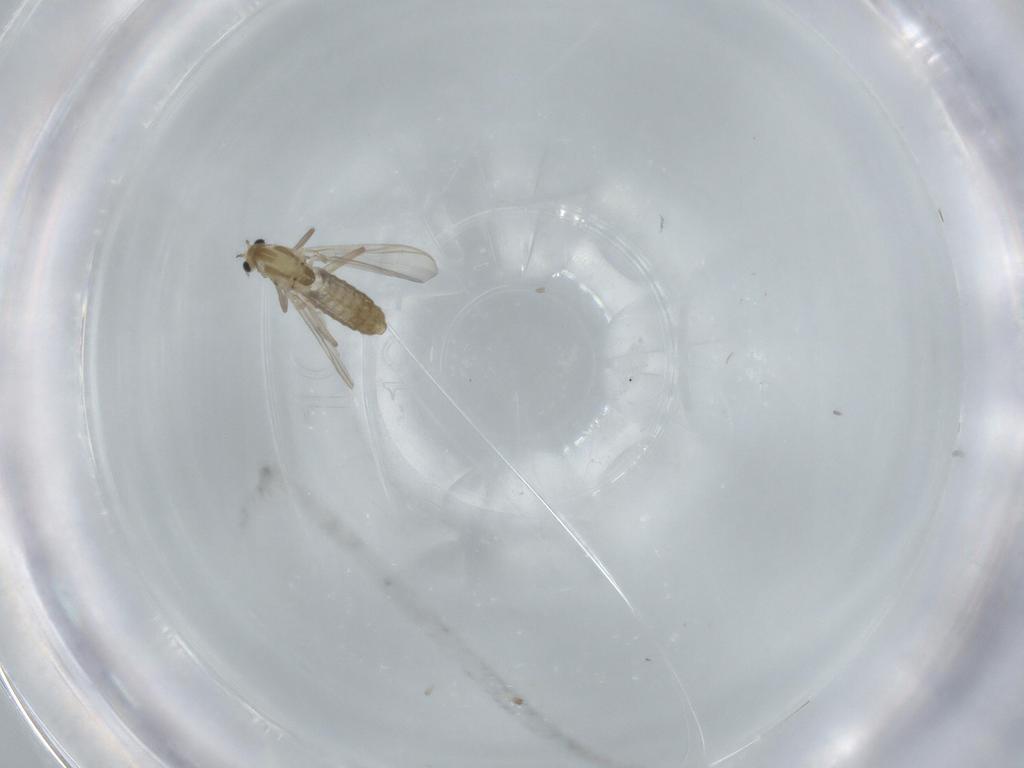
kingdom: Animalia
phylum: Arthropoda
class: Insecta
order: Diptera
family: Chironomidae
